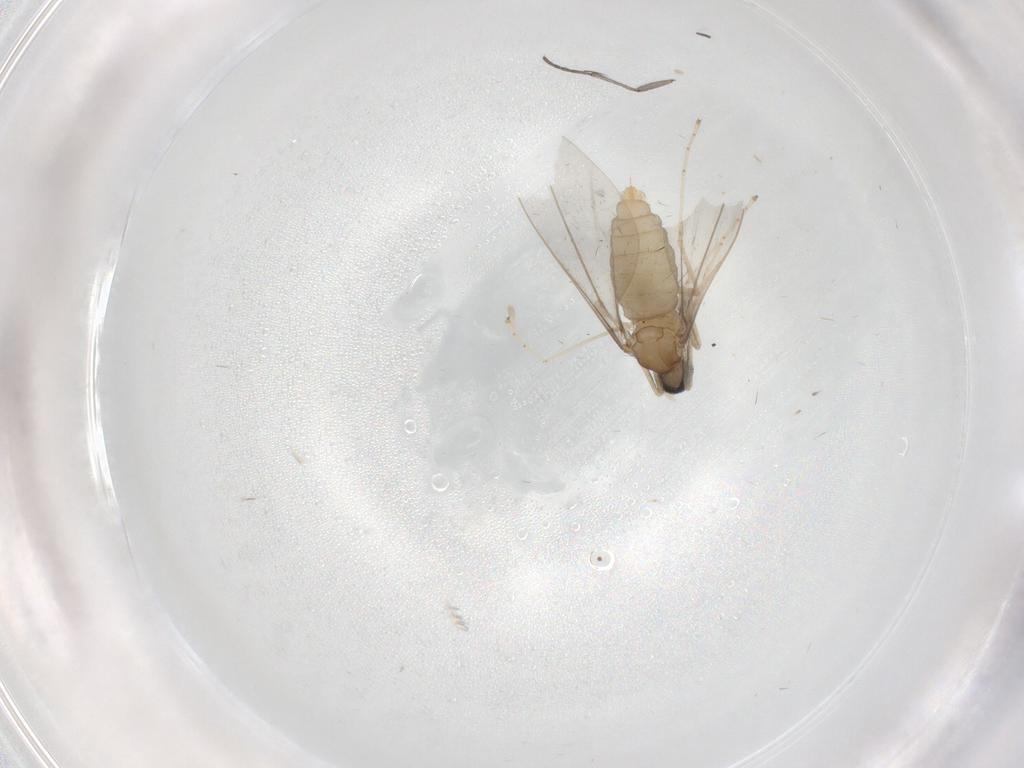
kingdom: Animalia
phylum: Arthropoda
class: Insecta
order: Diptera
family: Cecidomyiidae
